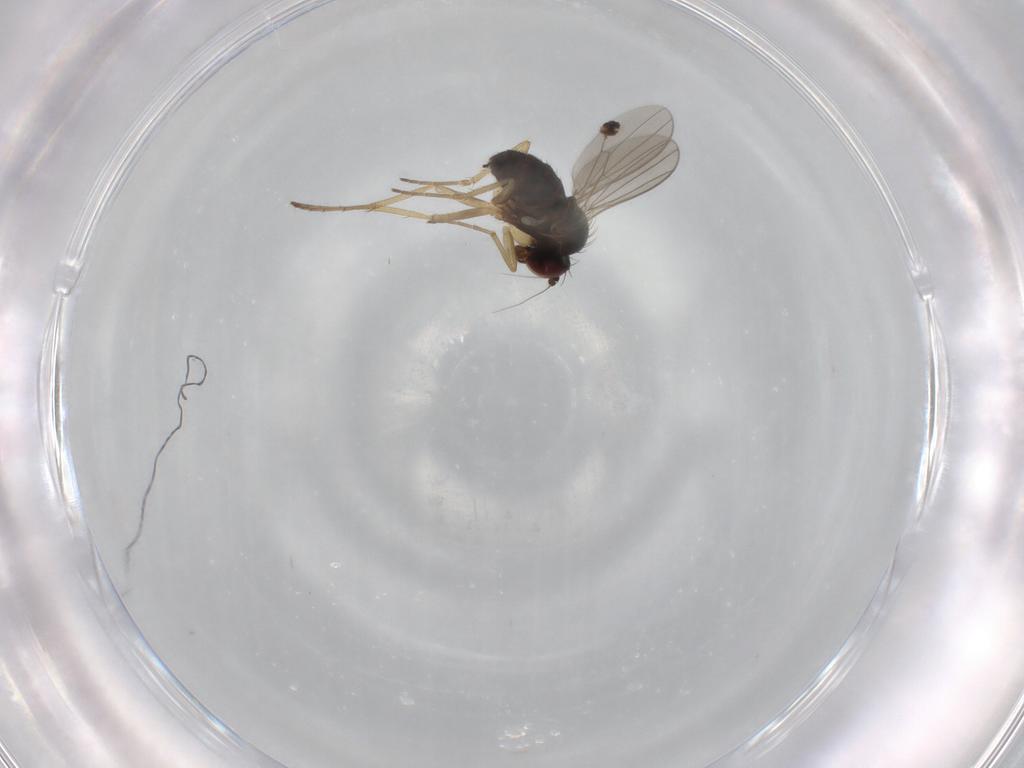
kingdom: Animalia
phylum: Arthropoda
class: Insecta
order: Diptera
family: Dolichopodidae
